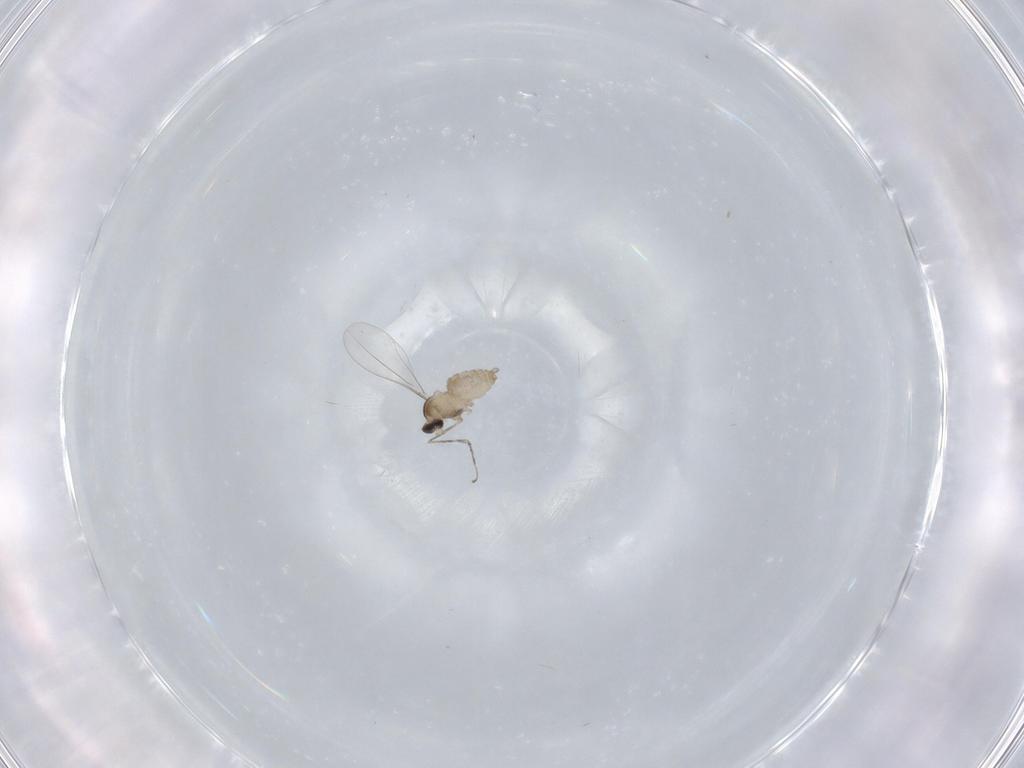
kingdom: Animalia
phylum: Arthropoda
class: Insecta
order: Diptera
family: Cecidomyiidae
